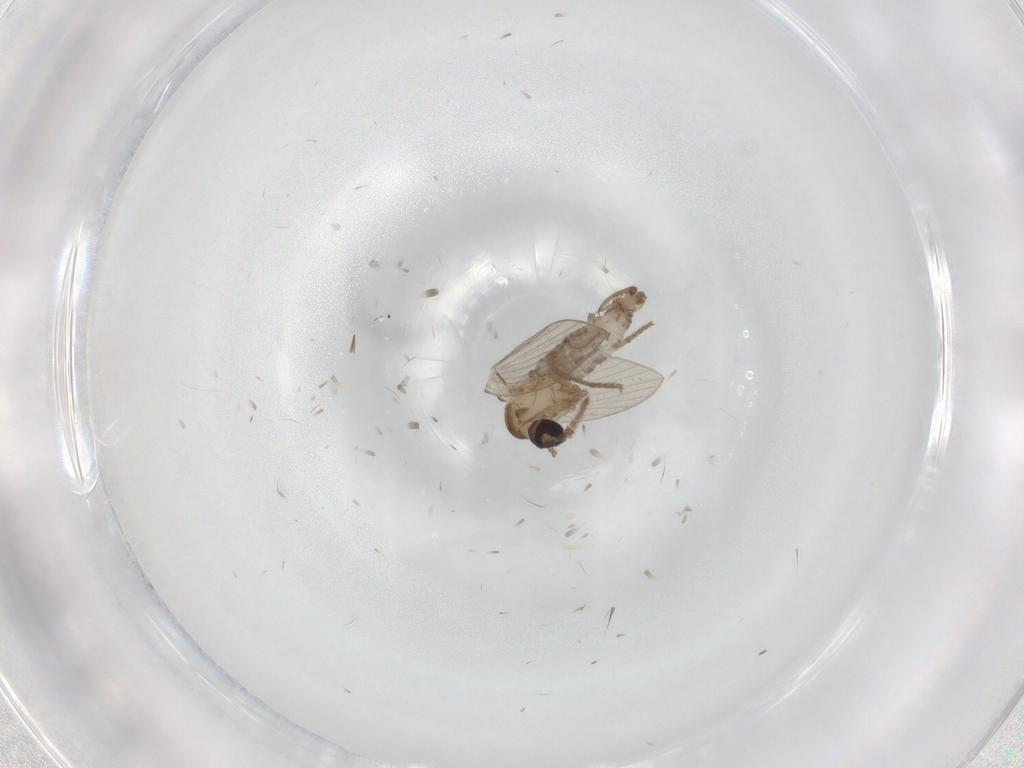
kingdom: Animalia
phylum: Arthropoda
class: Insecta
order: Diptera
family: Psychodidae
